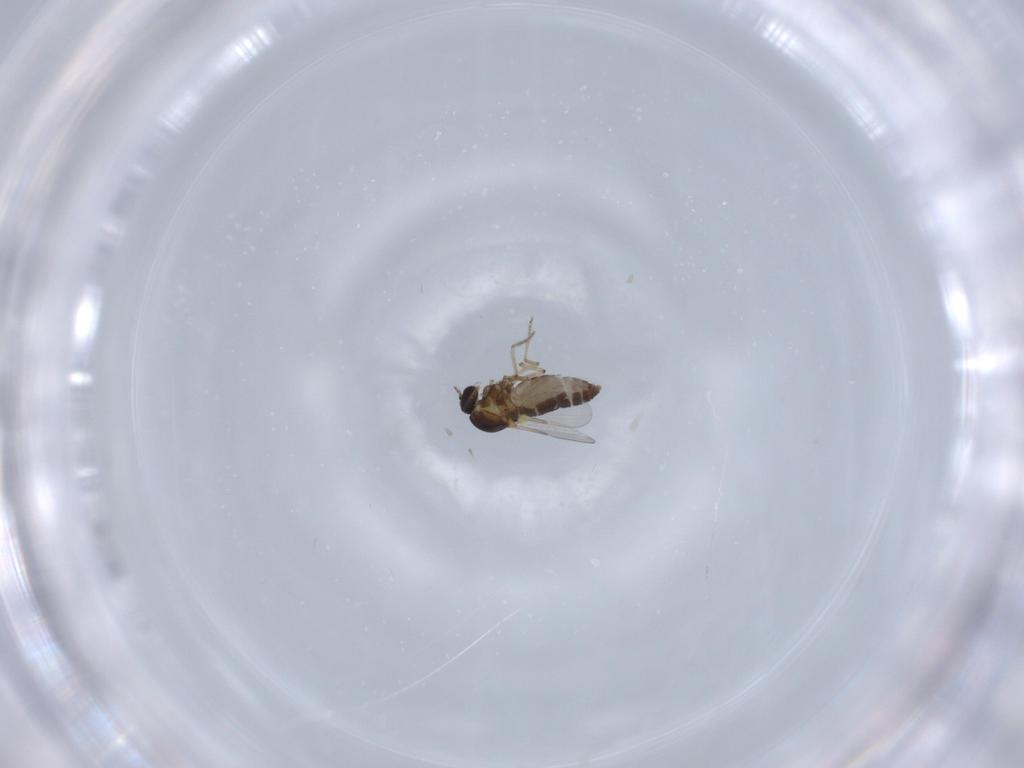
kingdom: Animalia
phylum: Arthropoda
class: Insecta
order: Diptera
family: Ceratopogonidae
